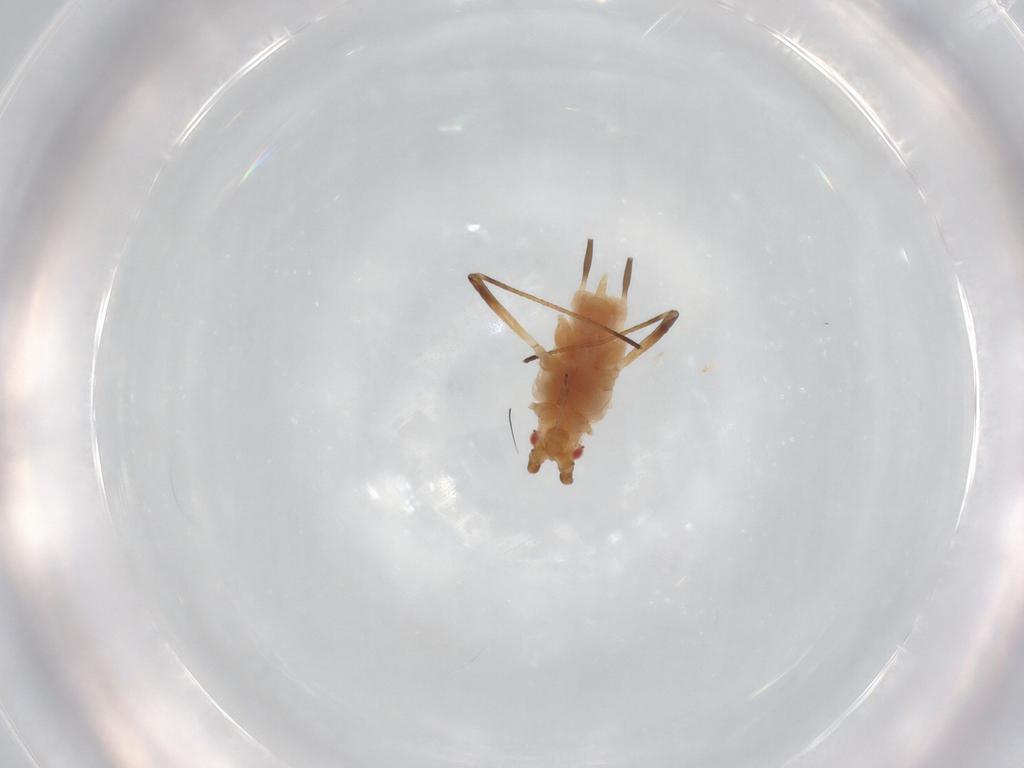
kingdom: Animalia
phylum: Arthropoda
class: Insecta
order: Hemiptera
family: Aphididae
